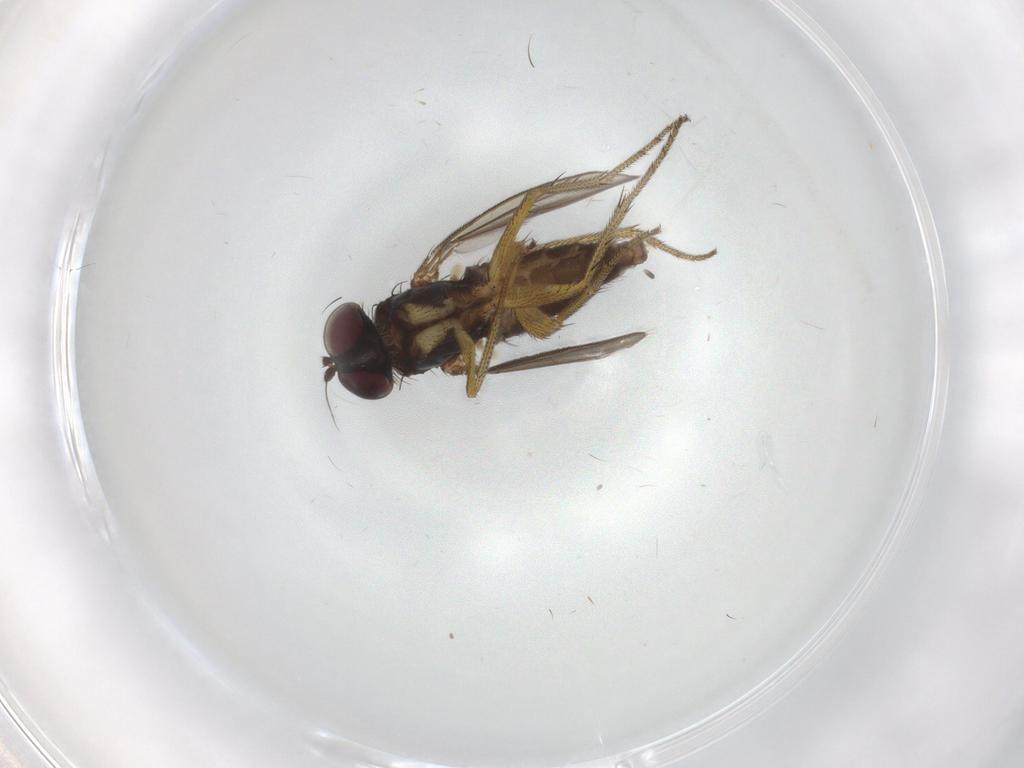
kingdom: Animalia
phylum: Arthropoda
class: Insecta
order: Diptera
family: Dolichopodidae
